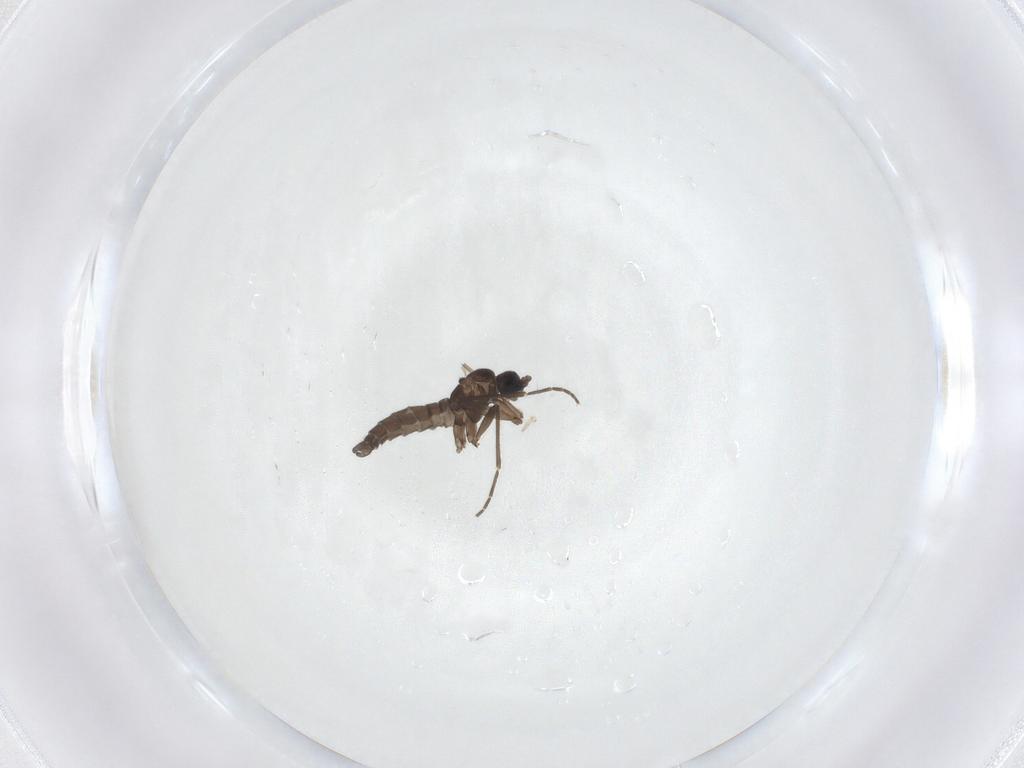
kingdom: Animalia
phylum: Arthropoda
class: Insecta
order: Diptera
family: Sciaridae
